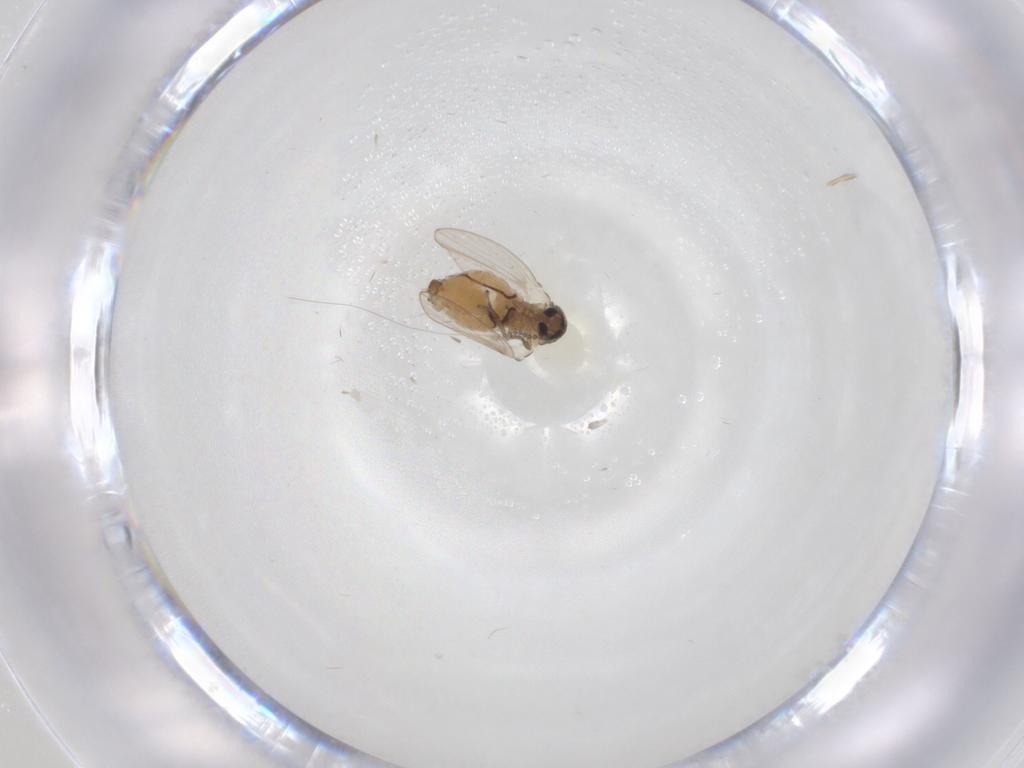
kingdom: Animalia
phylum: Arthropoda
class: Insecta
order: Diptera
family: Psychodidae
